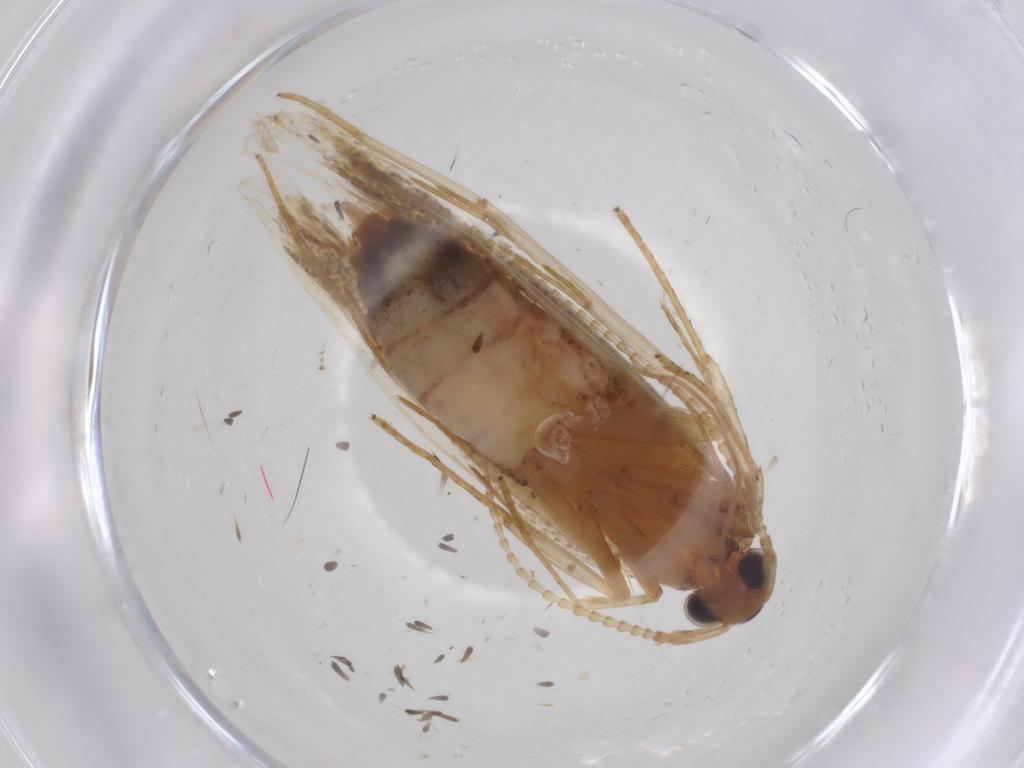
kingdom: Animalia
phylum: Arthropoda
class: Insecta
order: Lepidoptera
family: Lecithoceridae
